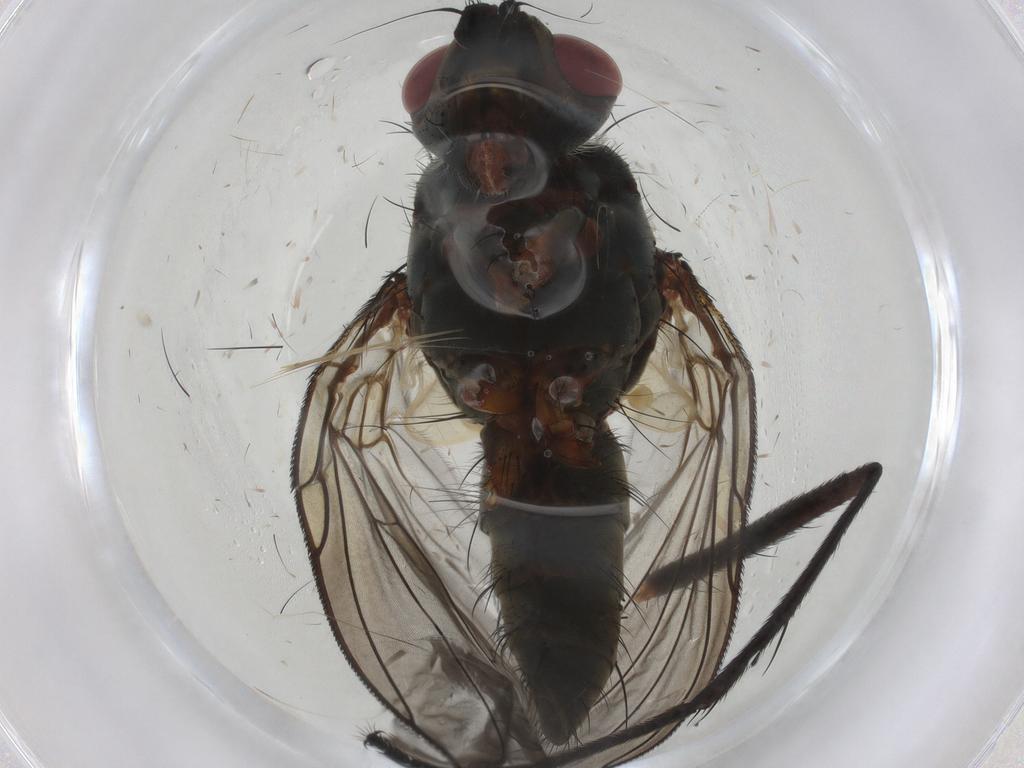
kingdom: Animalia
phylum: Arthropoda
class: Insecta
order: Diptera
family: Tachinidae
